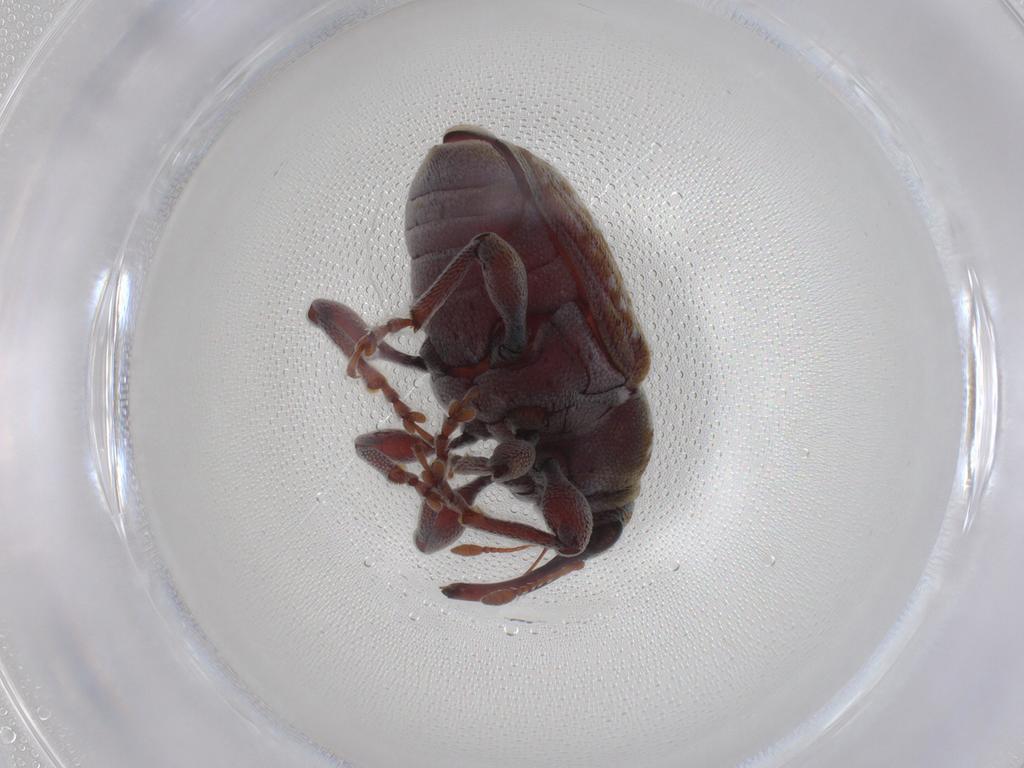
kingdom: Animalia
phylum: Arthropoda
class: Insecta
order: Coleoptera
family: Curculionidae
